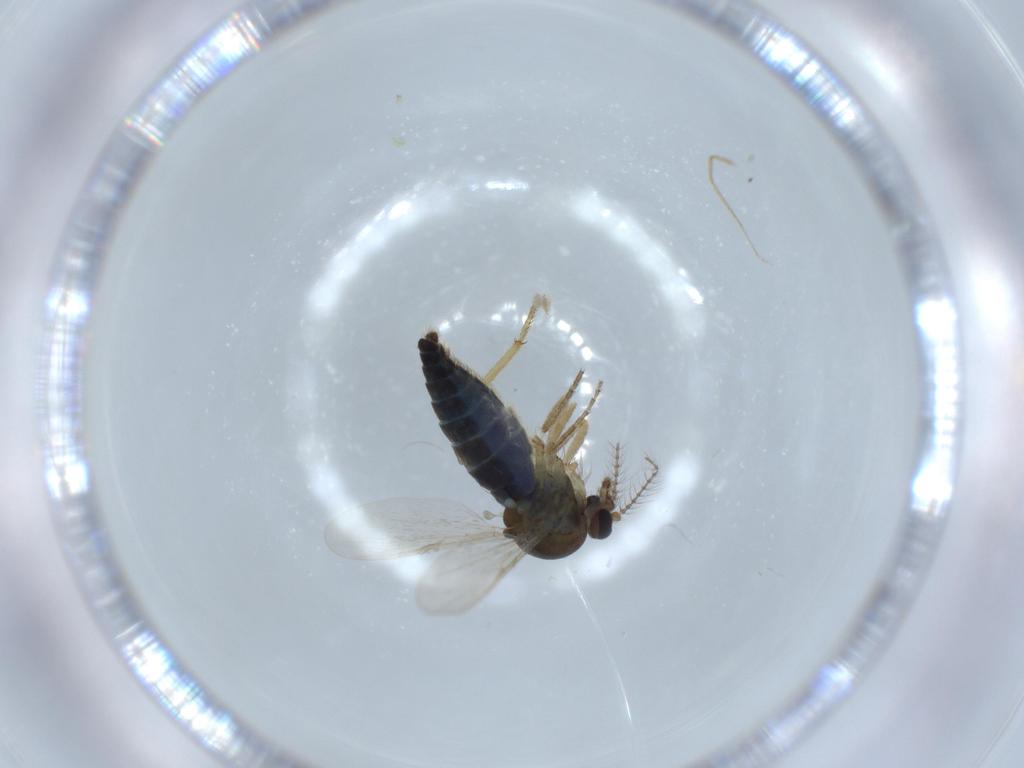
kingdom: Animalia
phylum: Arthropoda
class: Insecta
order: Diptera
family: Ceratopogonidae
